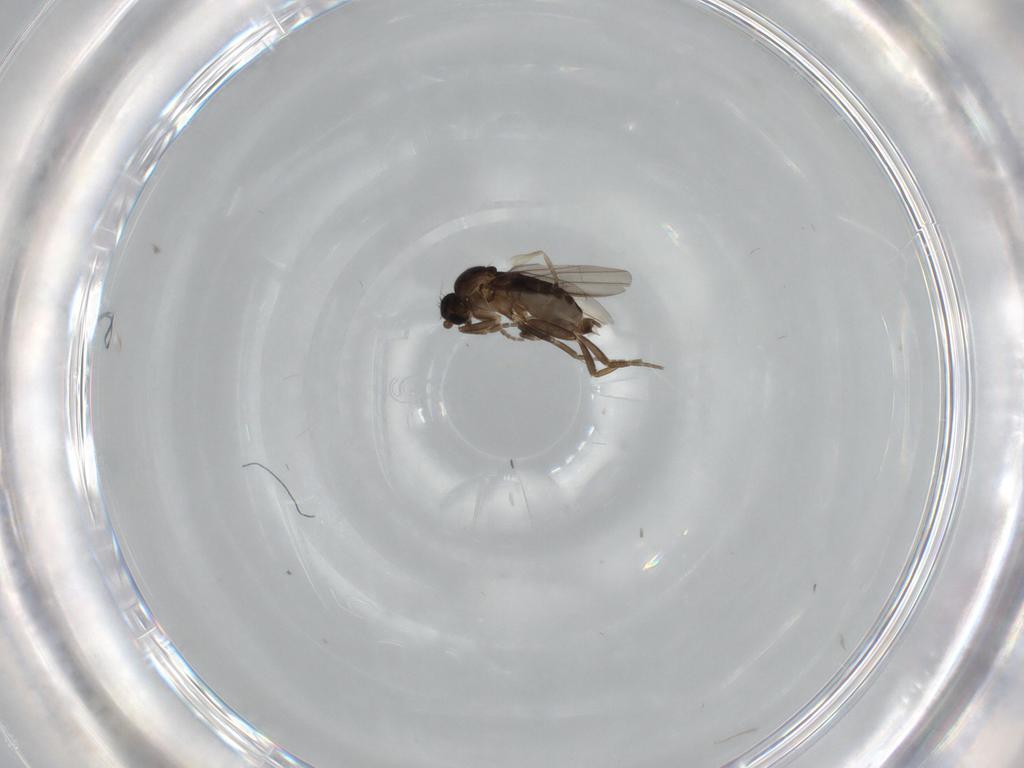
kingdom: Animalia
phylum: Arthropoda
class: Insecta
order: Diptera
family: Phoridae
